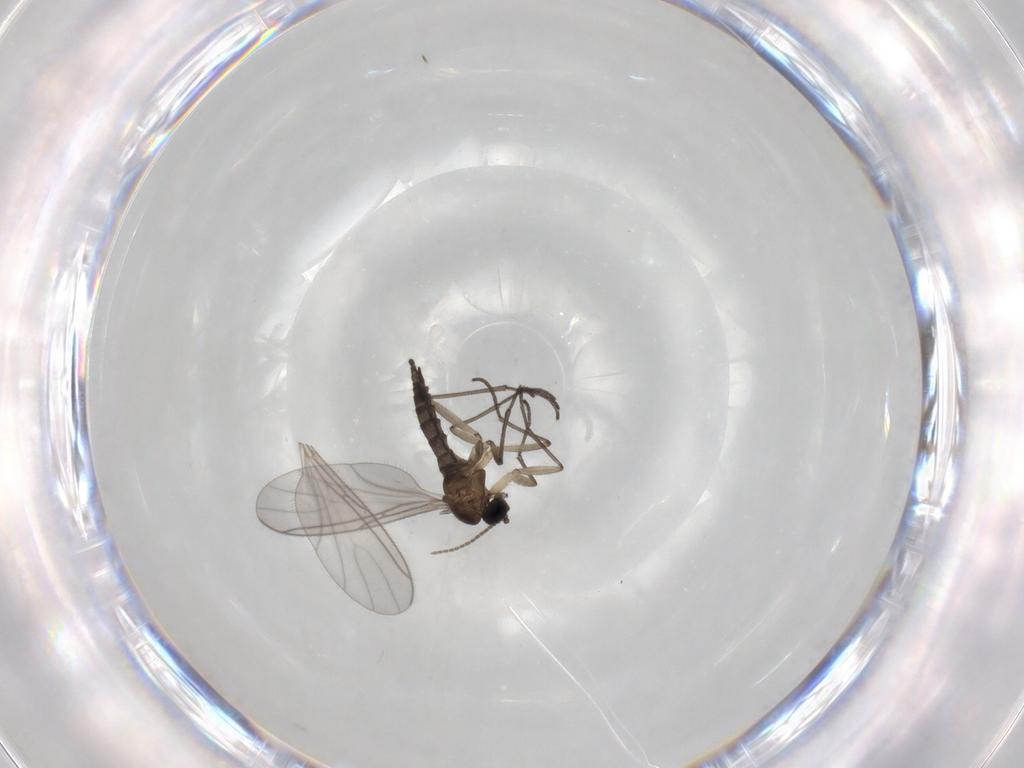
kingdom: Animalia
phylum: Arthropoda
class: Insecta
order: Diptera
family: Sciaridae
